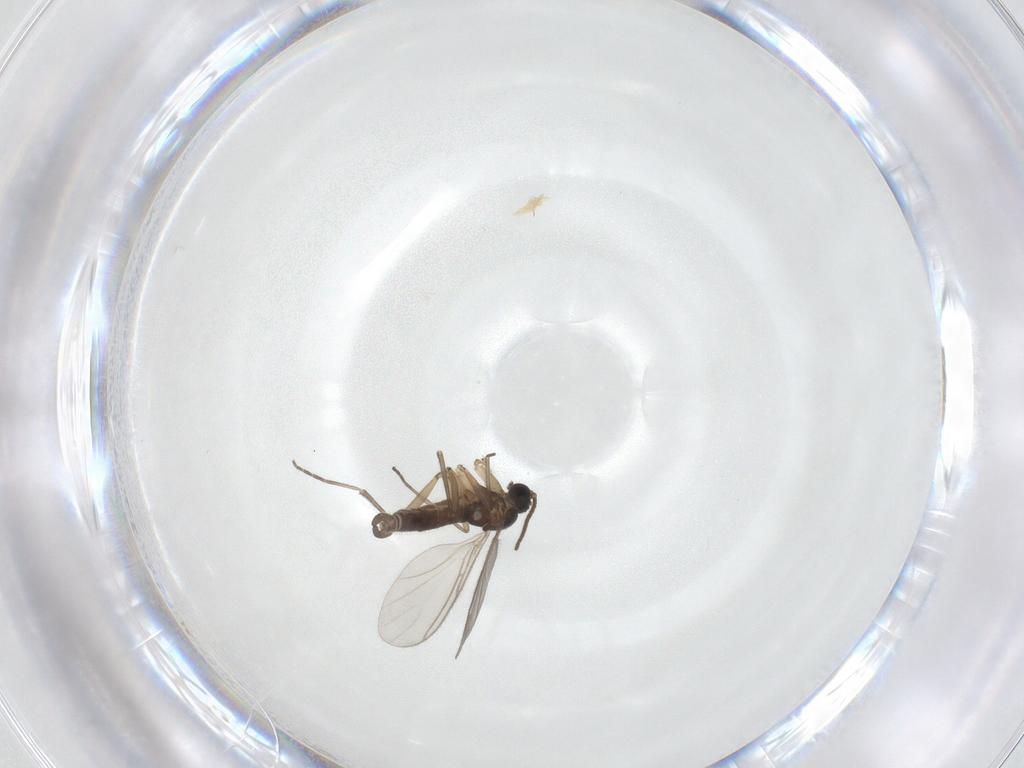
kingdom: Animalia
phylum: Arthropoda
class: Insecta
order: Diptera
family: Sciaridae
